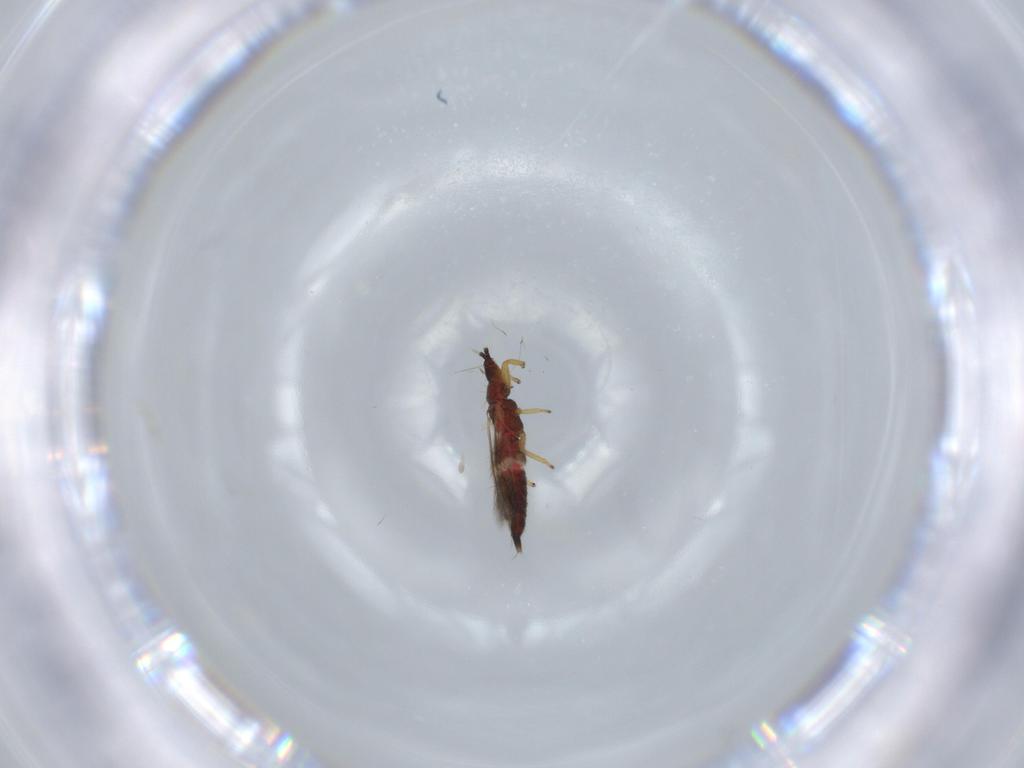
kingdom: Animalia
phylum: Arthropoda
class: Insecta
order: Thysanoptera
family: Phlaeothripidae
